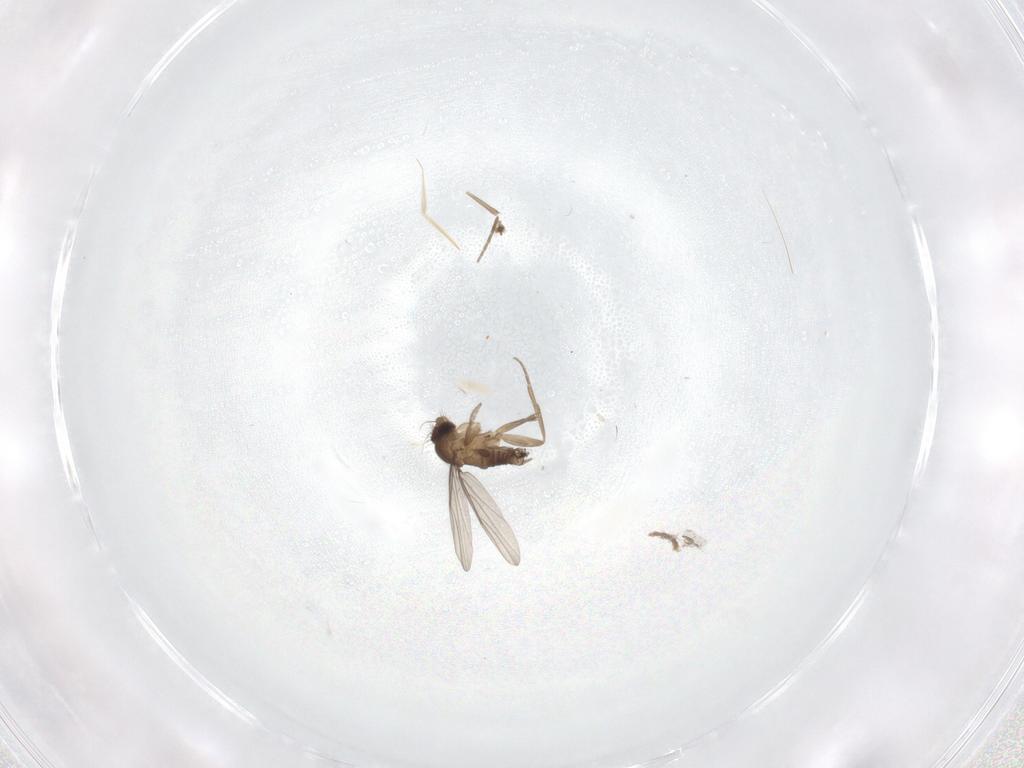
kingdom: Animalia
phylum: Arthropoda
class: Insecta
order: Diptera
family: Phoridae
